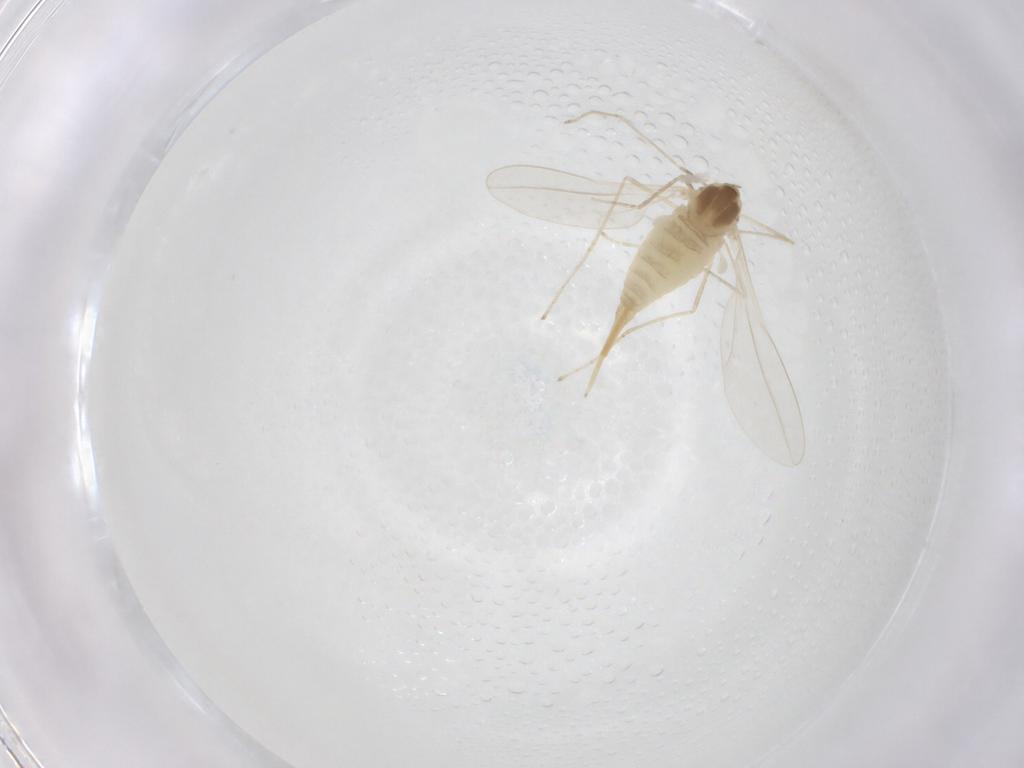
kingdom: Animalia
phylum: Arthropoda
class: Insecta
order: Diptera
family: Cecidomyiidae
